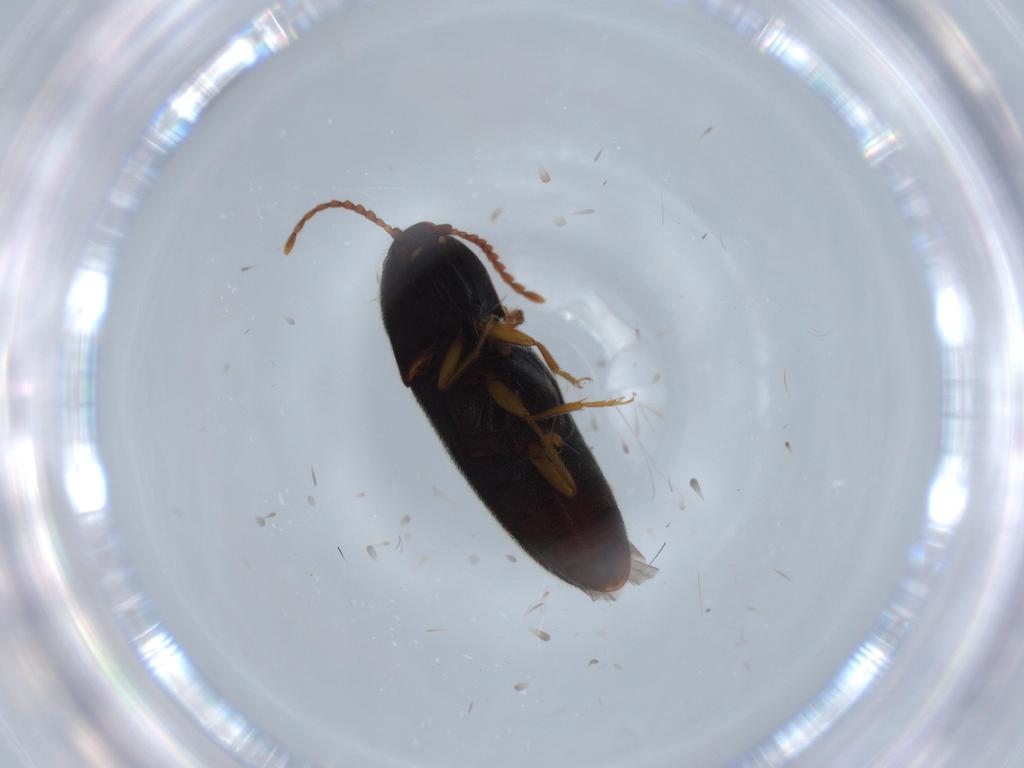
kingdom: Animalia
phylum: Arthropoda
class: Insecta
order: Coleoptera
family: Elateridae
